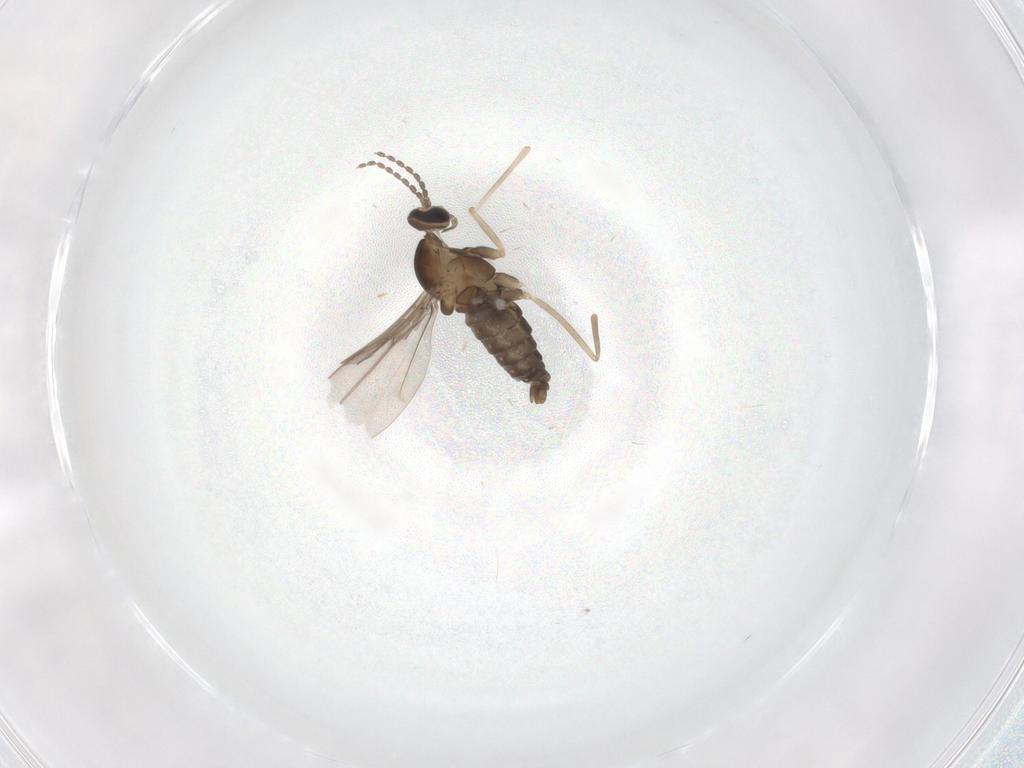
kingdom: Animalia
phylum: Arthropoda
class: Insecta
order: Diptera
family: Cecidomyiidae
